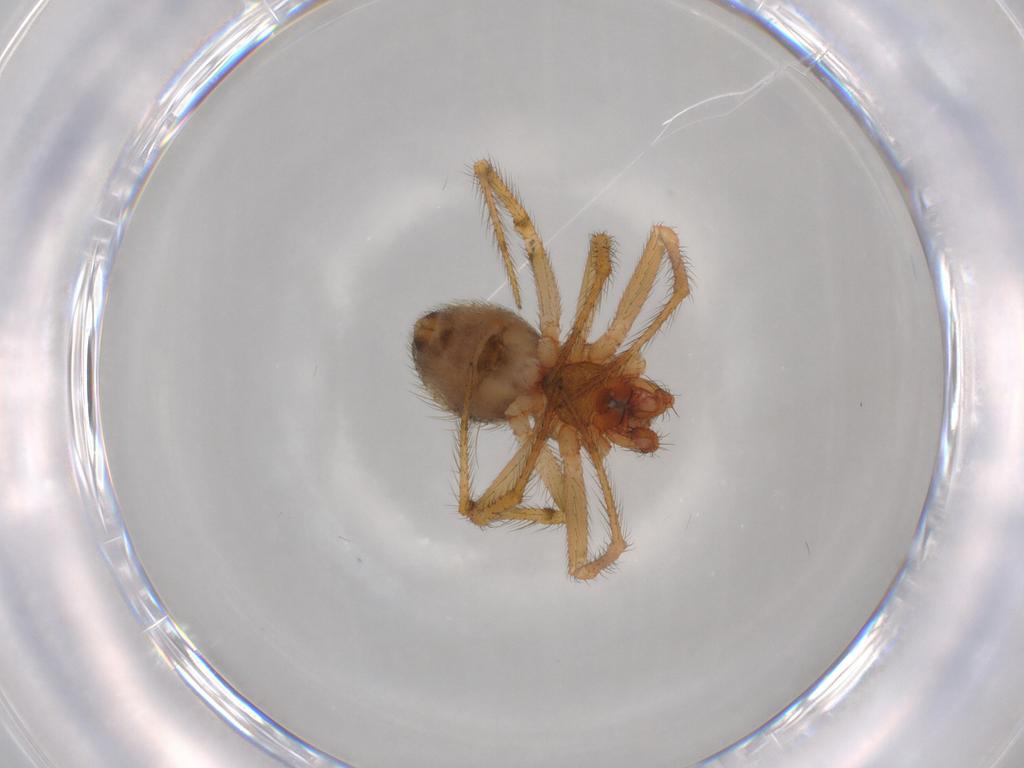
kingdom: Animalia
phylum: Arthropoda
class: Arachnida
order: Araneae
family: Theridiidae
